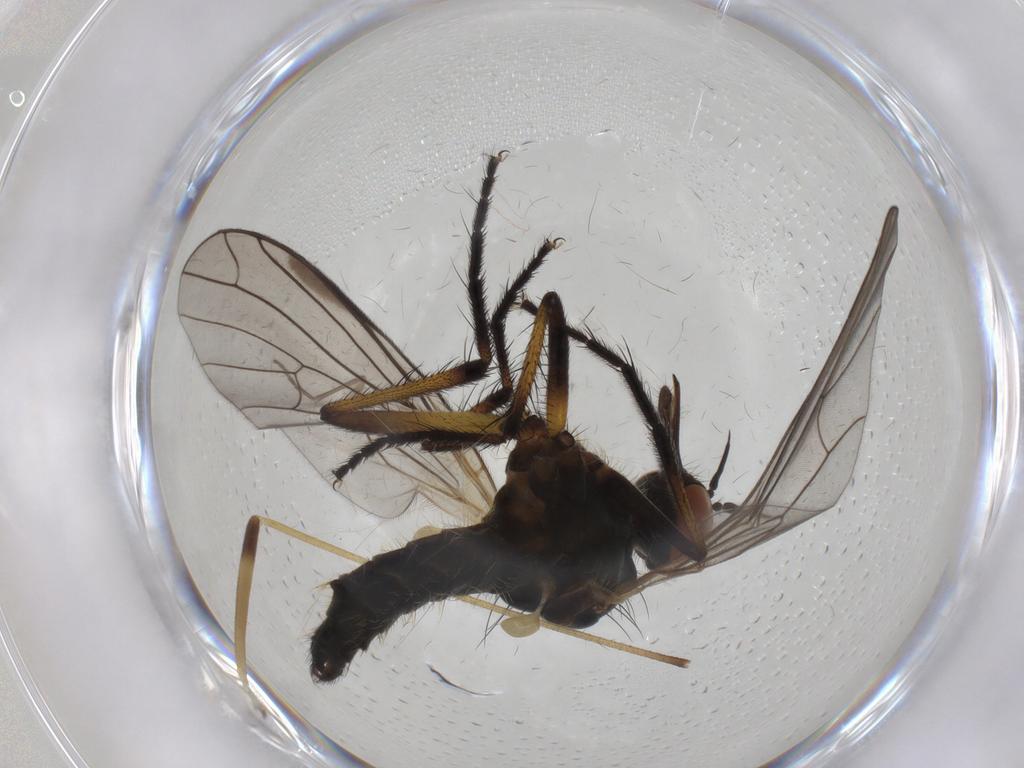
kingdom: Animalia
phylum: Arthropoda
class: Insecta
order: Diptera
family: Empididae
